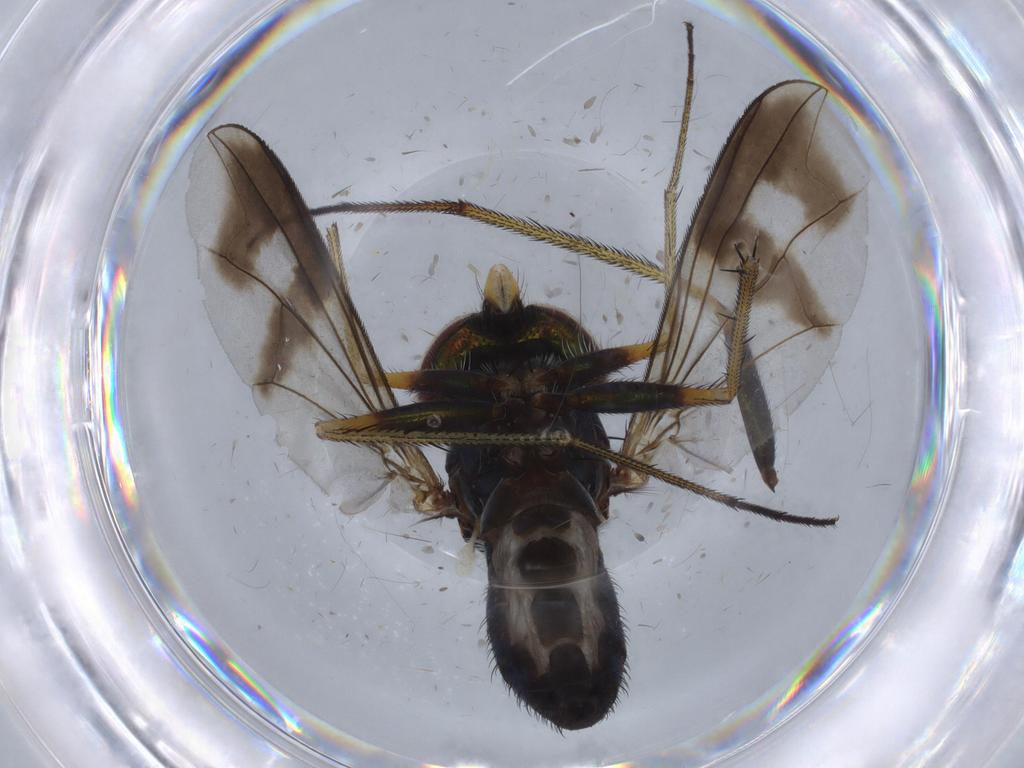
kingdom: Animalia
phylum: Arthropoda
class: Insecta
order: Diptera
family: Dolichopodidae
